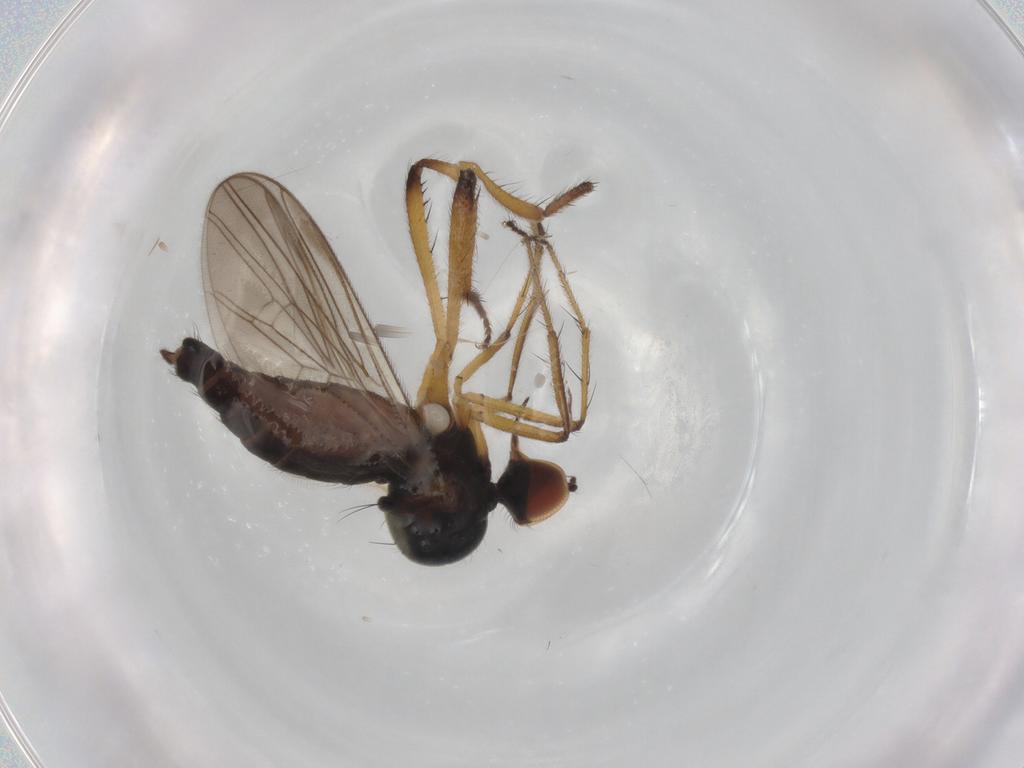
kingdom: Animalia
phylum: Arthropoda
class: Insecta
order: Diptera
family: Hybotidae
